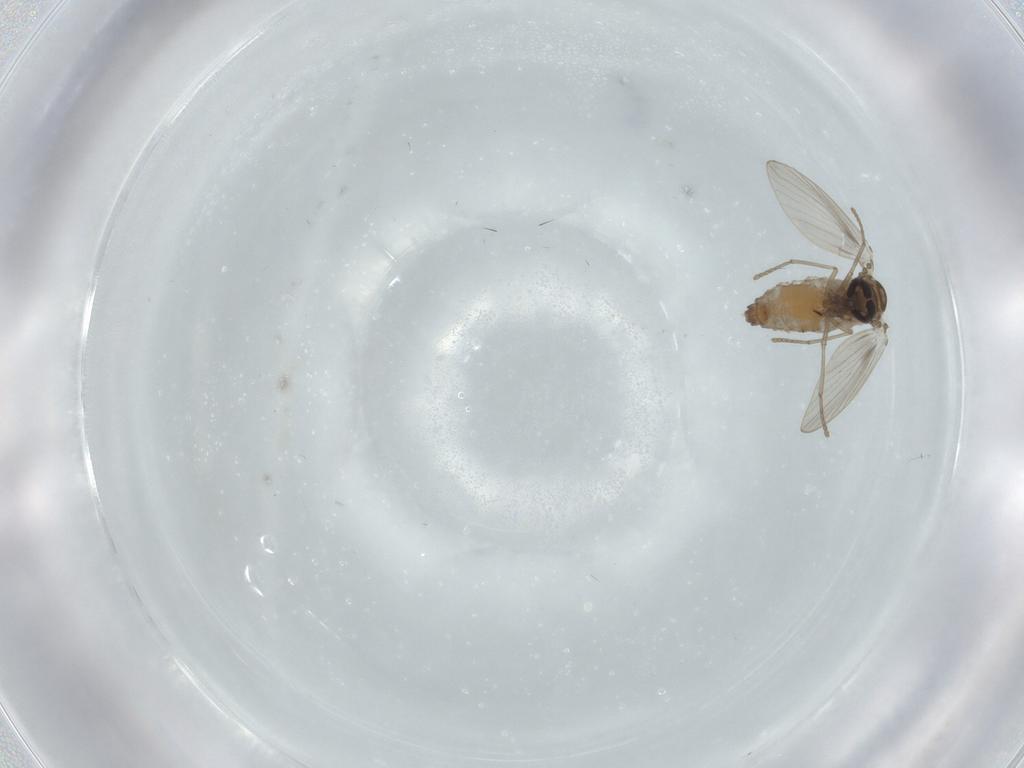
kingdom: Animalia
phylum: Arthropoda
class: Insecta
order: Diptera
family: Psychodidae
